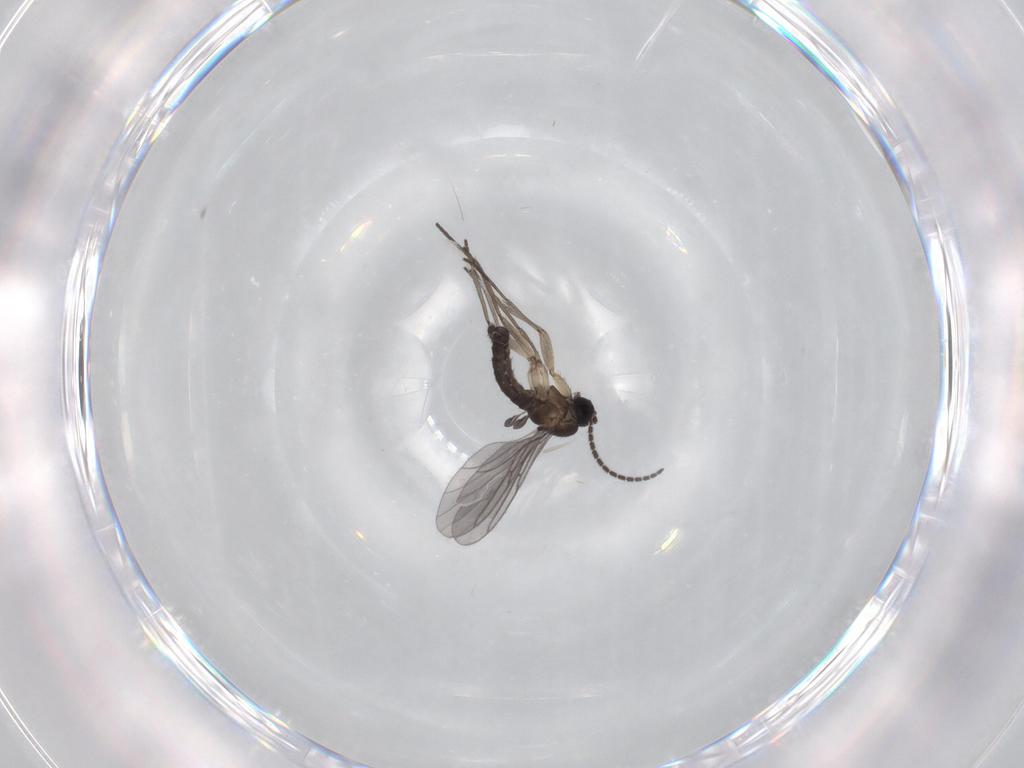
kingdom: Animalia
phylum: Arthropoda
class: Insecta
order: Diptera
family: Sciaridae
